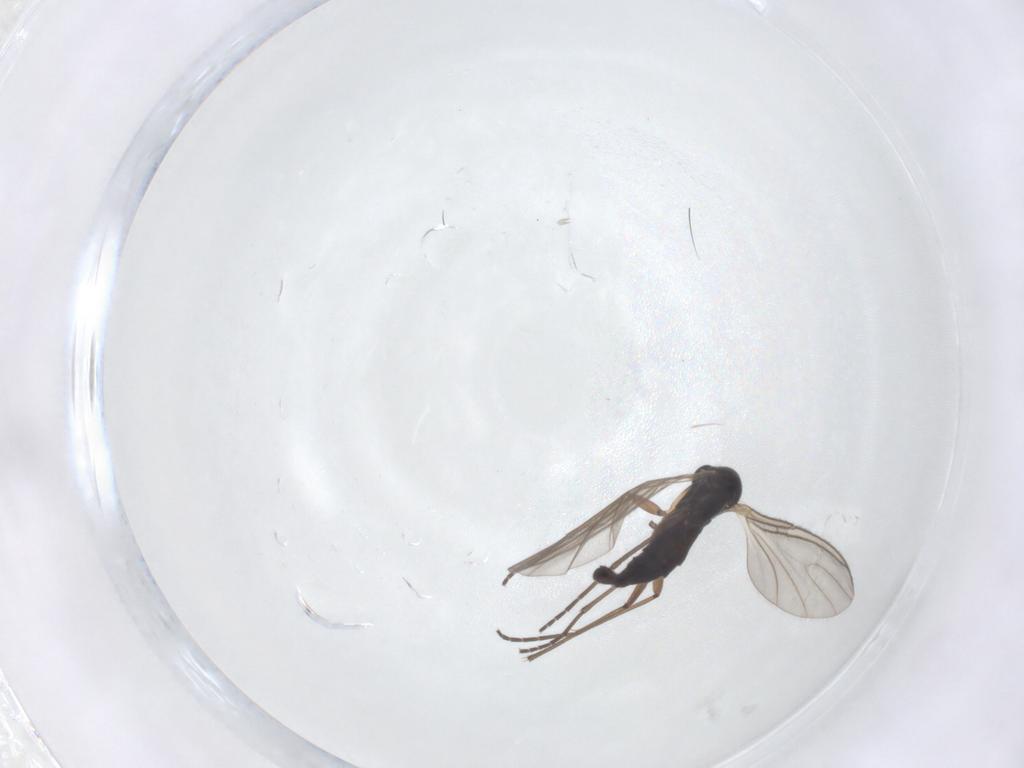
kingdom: Animalia
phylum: Arthropoda
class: Insecta
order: Diptera
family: Sciaridae
